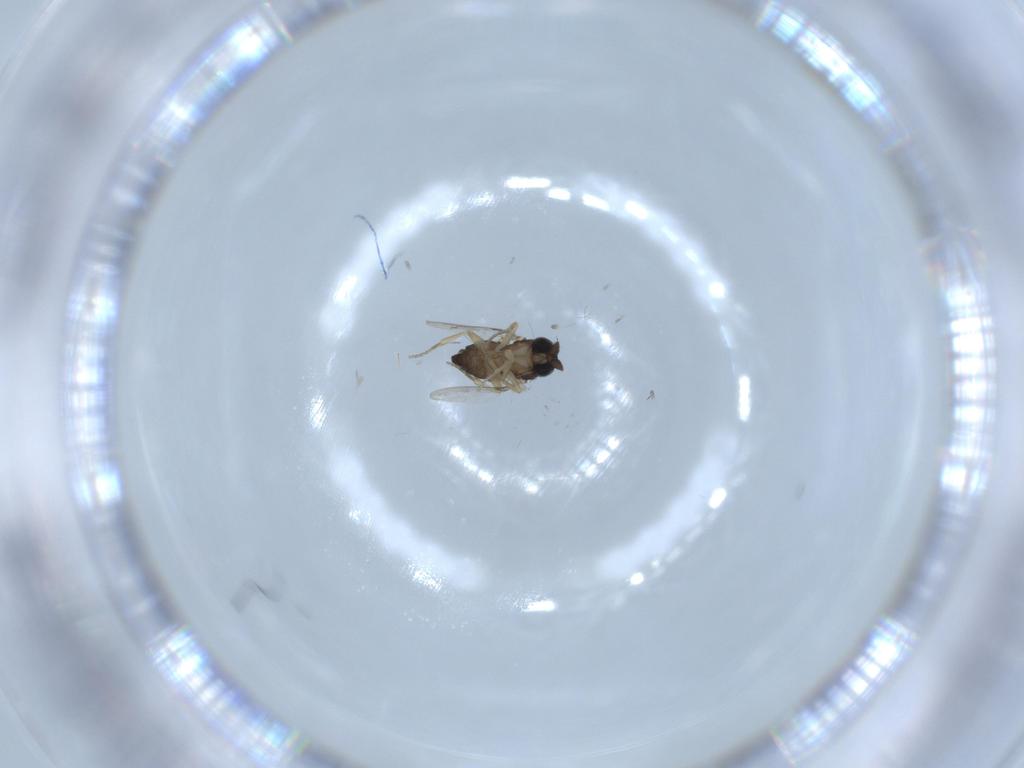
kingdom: Animalia
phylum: Arthropoda
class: Insecta
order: Diptera
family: Phoridae
